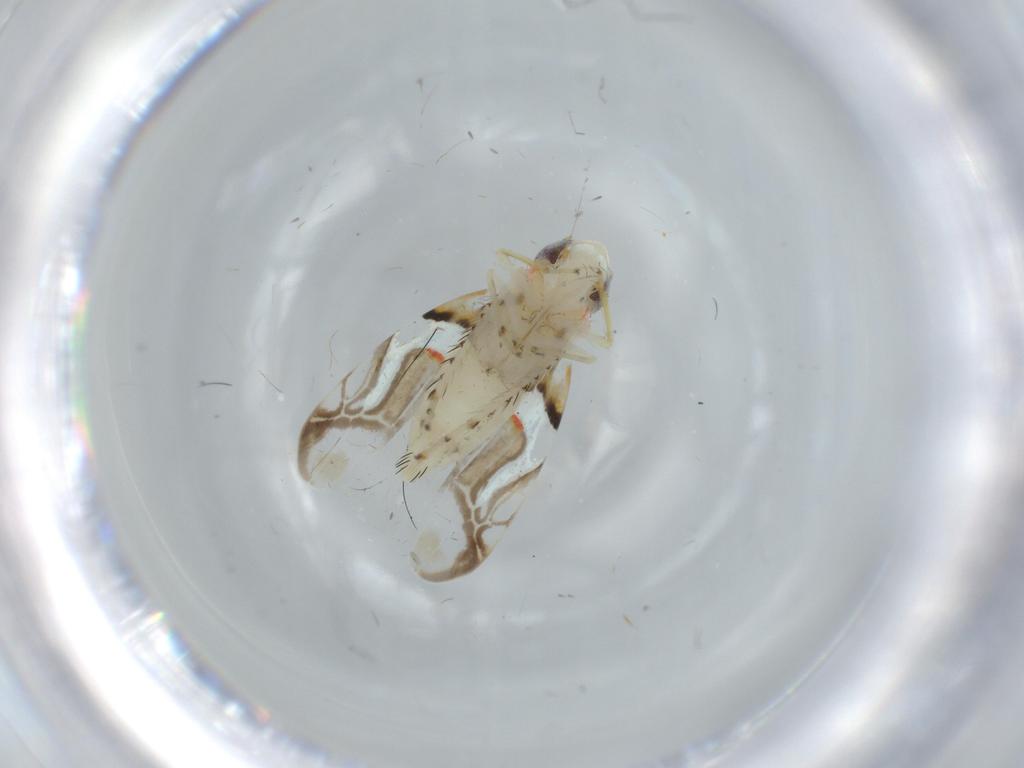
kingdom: Animalia
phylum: Arthropoda
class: Insecta
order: Hemiptera
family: Cicadellidae
